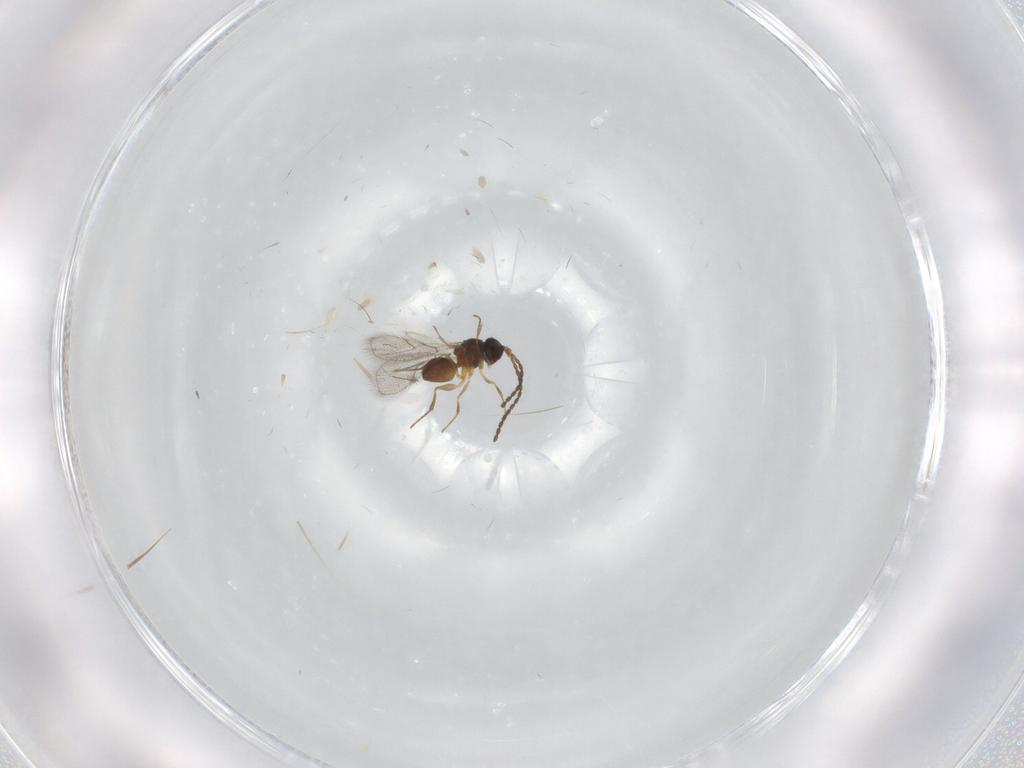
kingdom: Animalia
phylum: Arthropoda
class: Insecta
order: Hymenoptera
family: Figitidae
